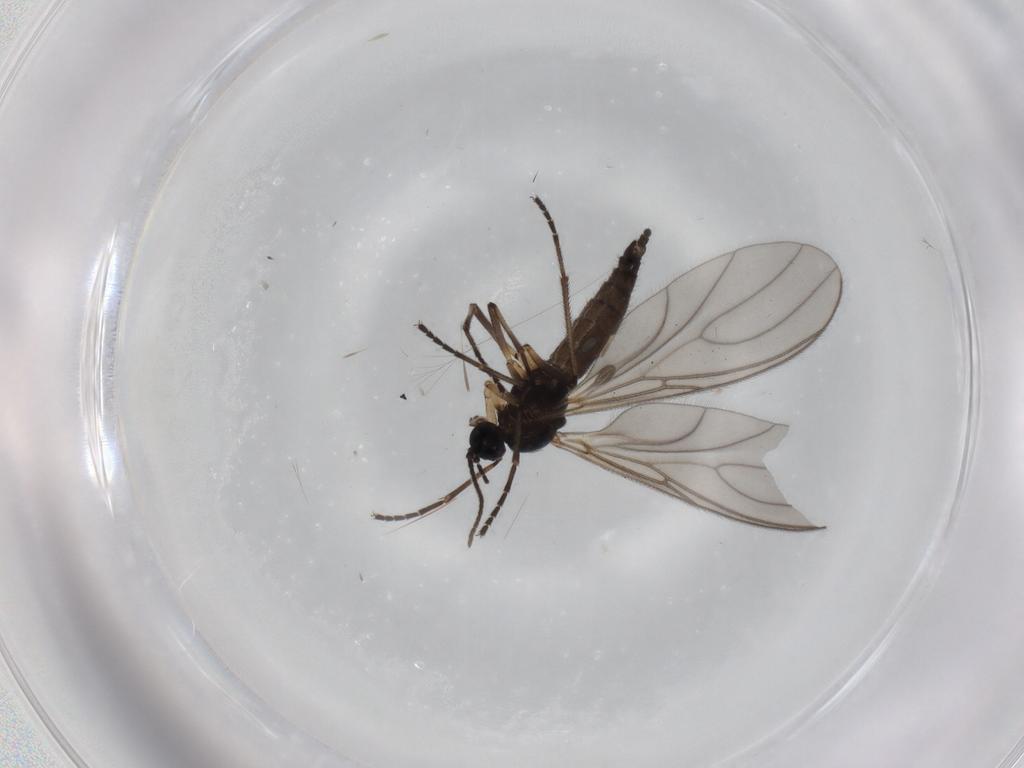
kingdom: Animalia
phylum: Arthropoda
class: Insecta
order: Diptera
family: Sciaridae
